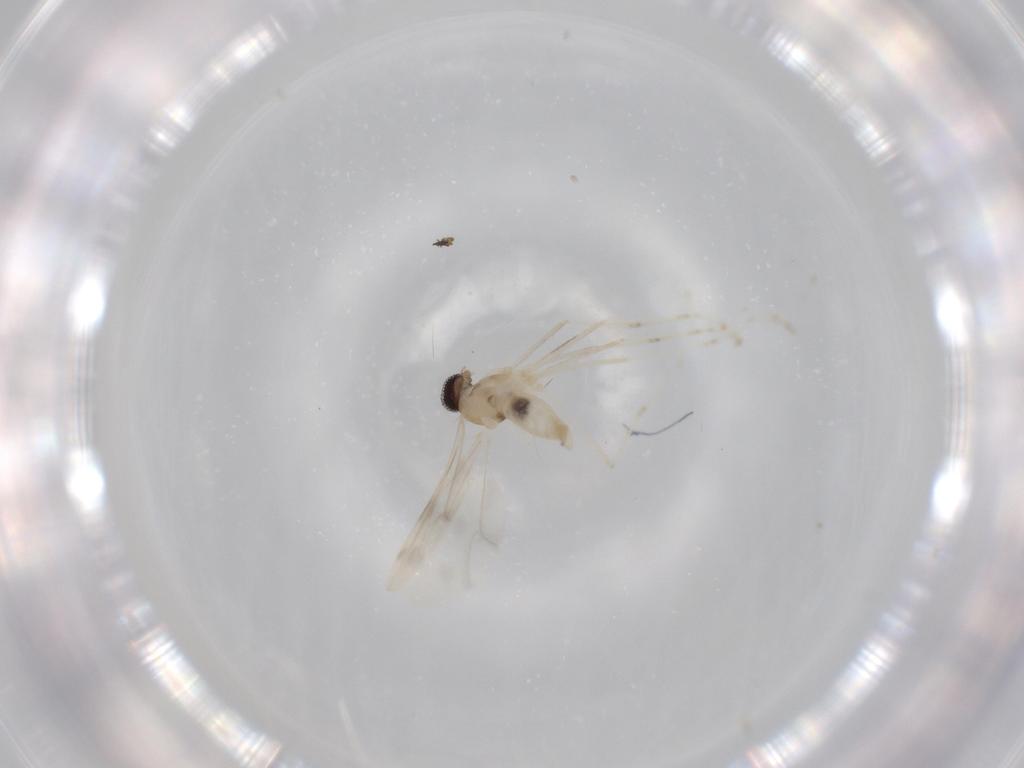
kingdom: Animalia
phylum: Arthropoda
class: Insecta
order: Diptera
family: Cecidomyiidae
